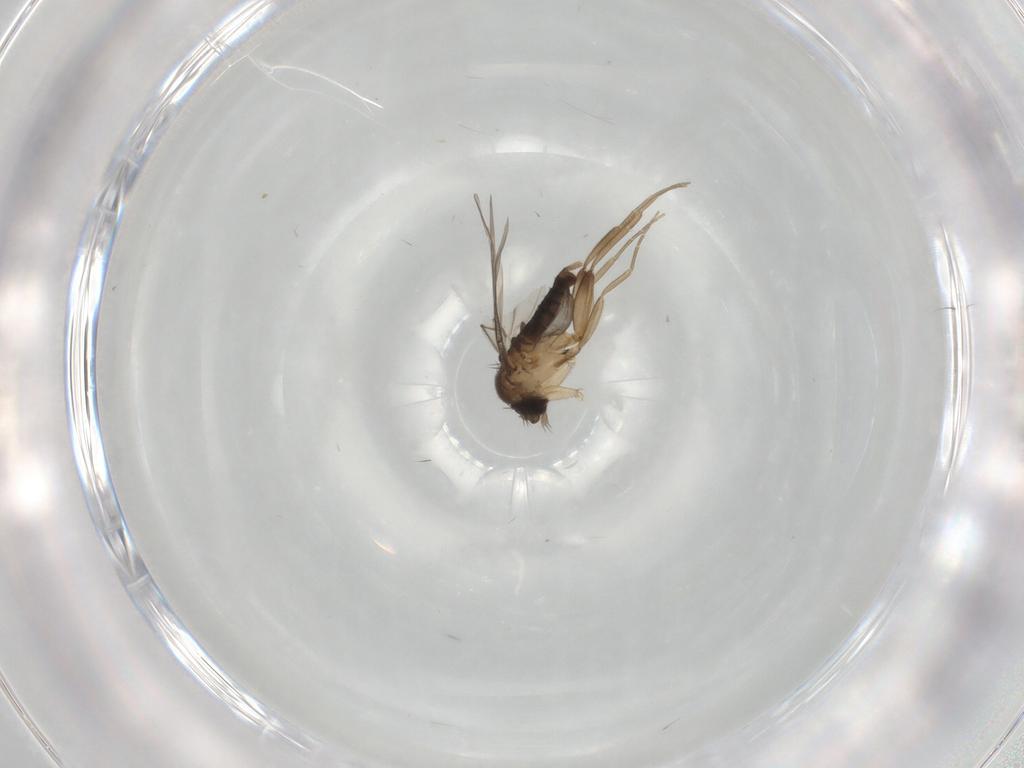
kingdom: Animalia
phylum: Arthropoda
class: Insecta
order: Diptera
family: Cecidomyiidae
